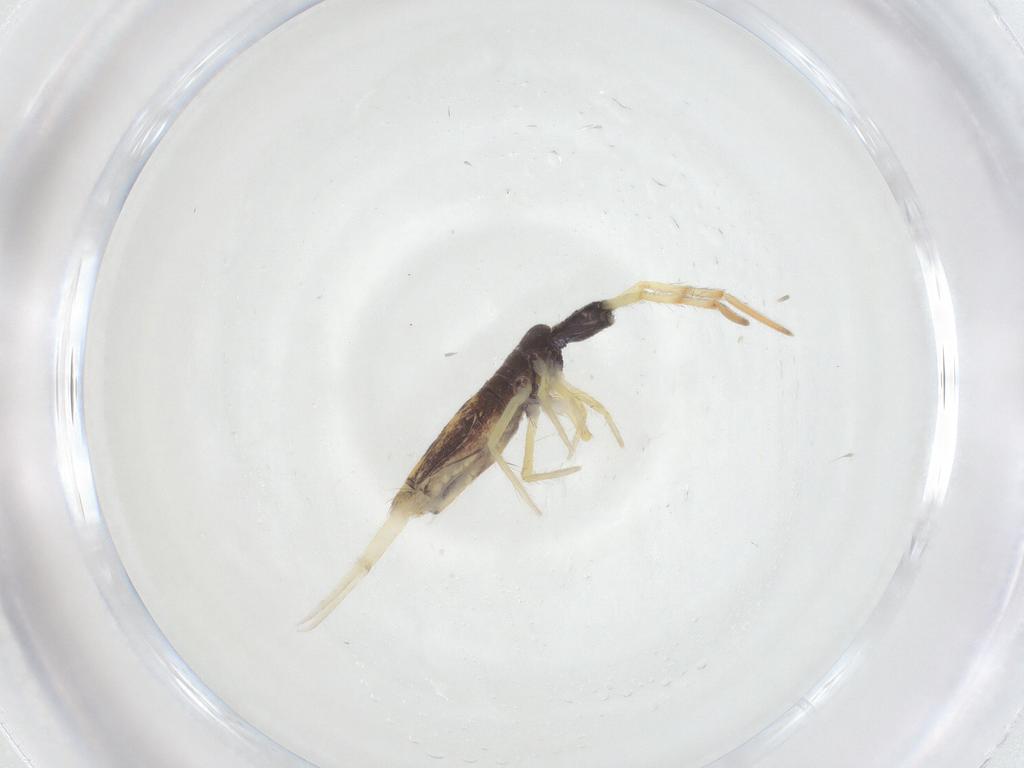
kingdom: Animalia
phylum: Arthropoda
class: Collembola
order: Entomobryomorpha
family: Entomobryidae
